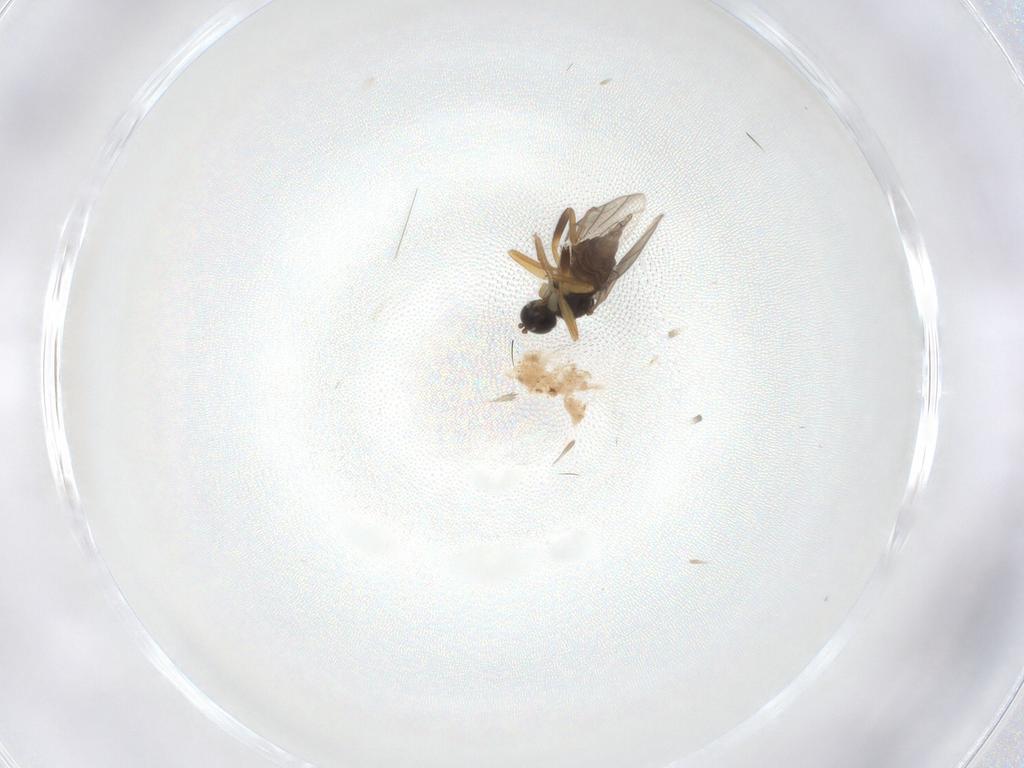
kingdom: Animalia
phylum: Arthropoda
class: Insecta
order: Diptera
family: Hybotidae
